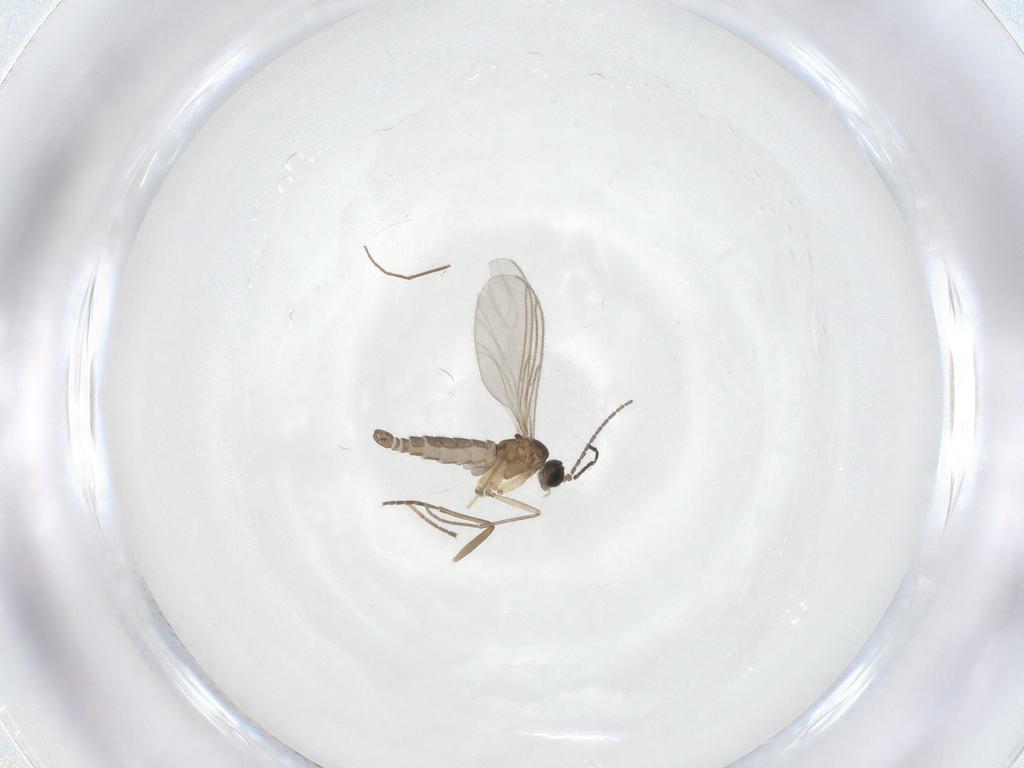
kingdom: Animalia
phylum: Arthropoda
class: Insecta
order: Diptera
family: Sciaridae
